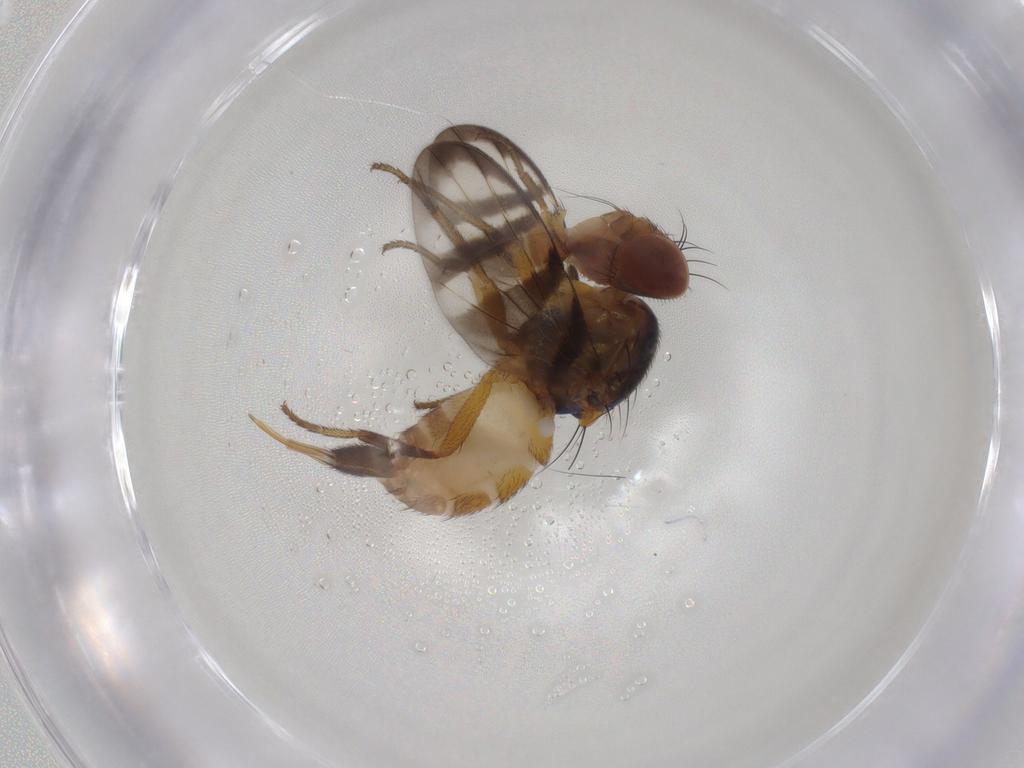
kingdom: Animalia
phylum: Arthropoda
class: Insecta
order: Diptera
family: Ulidiidae
